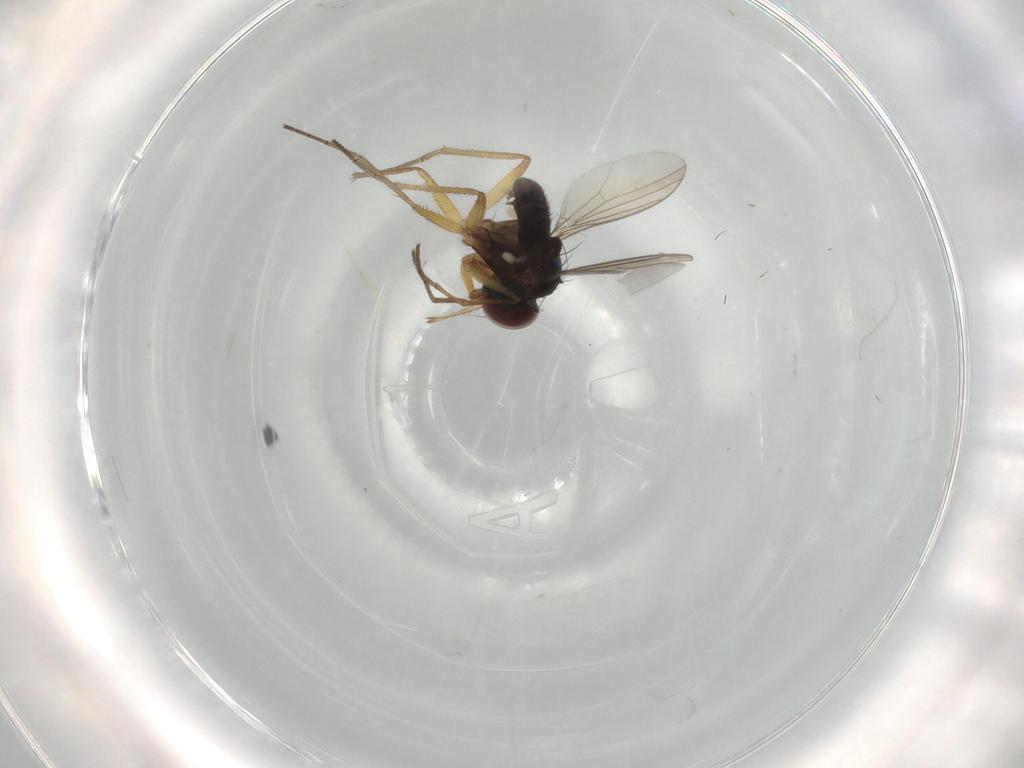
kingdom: Animalia
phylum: Arthropoda
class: Insecta
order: Diptera
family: Dolichopodidae
